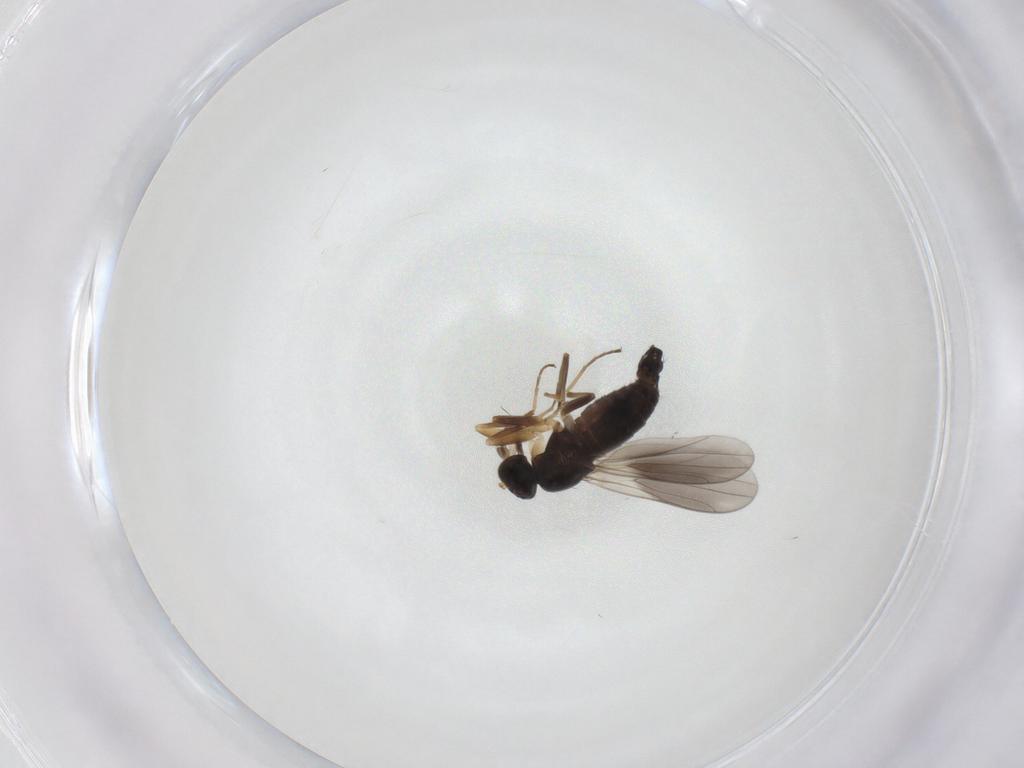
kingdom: Animalia
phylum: Arthropoda
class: Insecta
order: Diptera
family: Hybotidae
